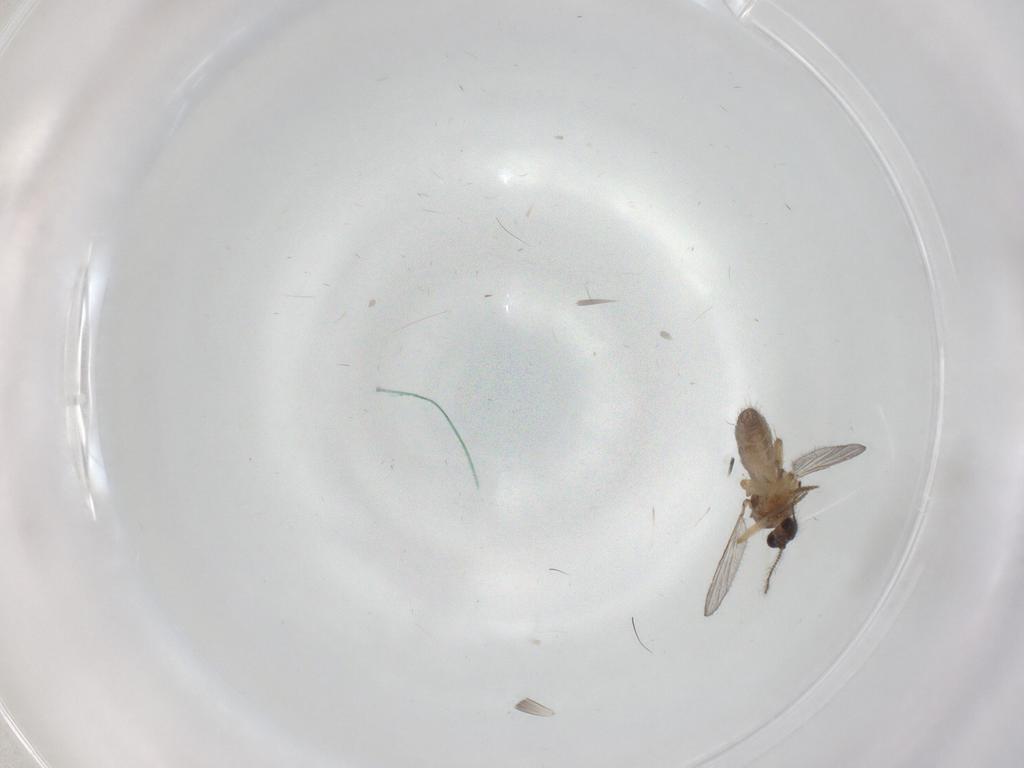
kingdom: Animalia
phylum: Arthropoda
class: Insecta
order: Diptera
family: Ceratopogonidae
